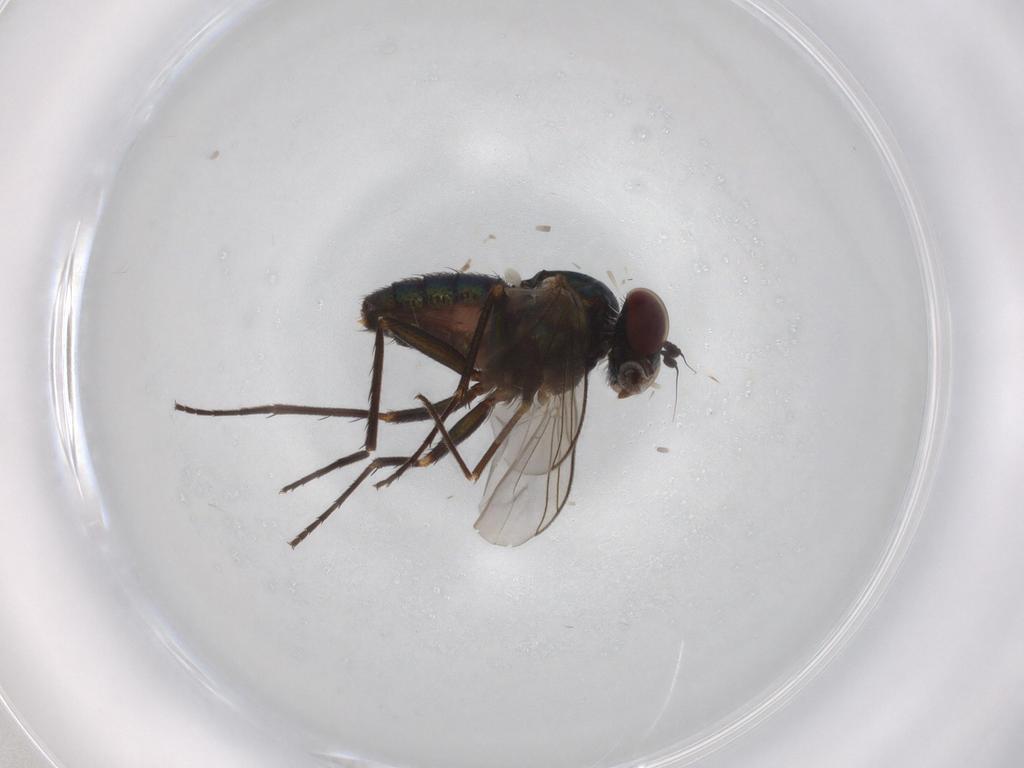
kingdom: Animalia
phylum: Arthropoda
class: Insecta
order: Diptera
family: Dolichopodidae
